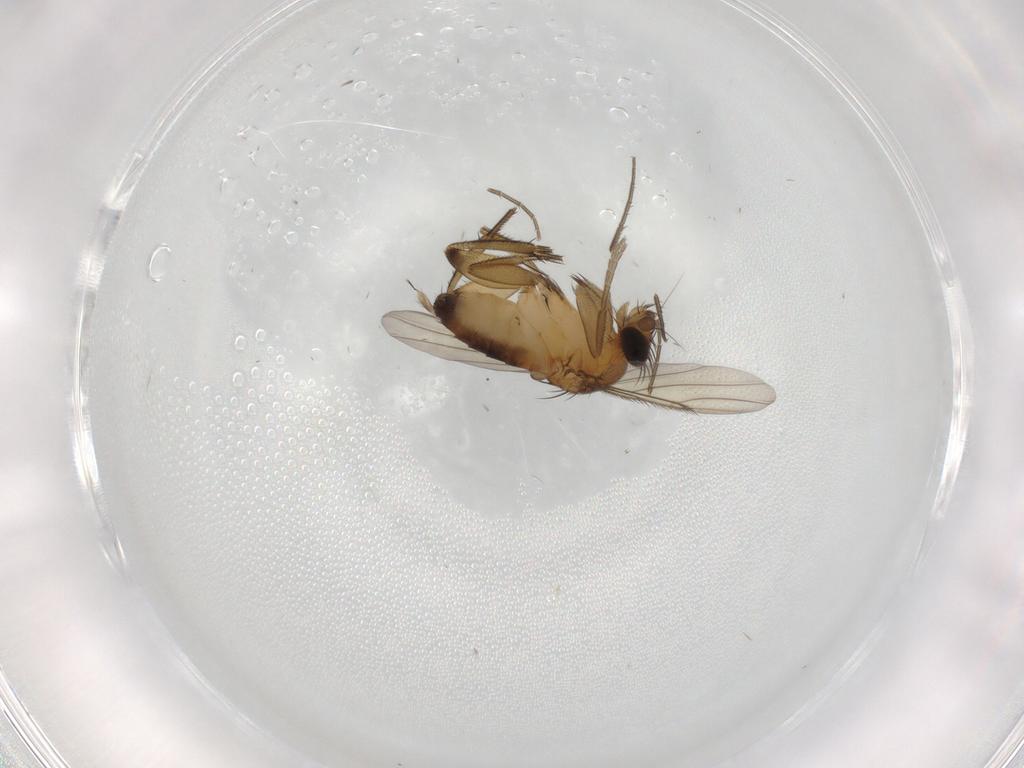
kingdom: Animalia
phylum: Arthropoda
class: Insecta
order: Diptera
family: Phoridae
